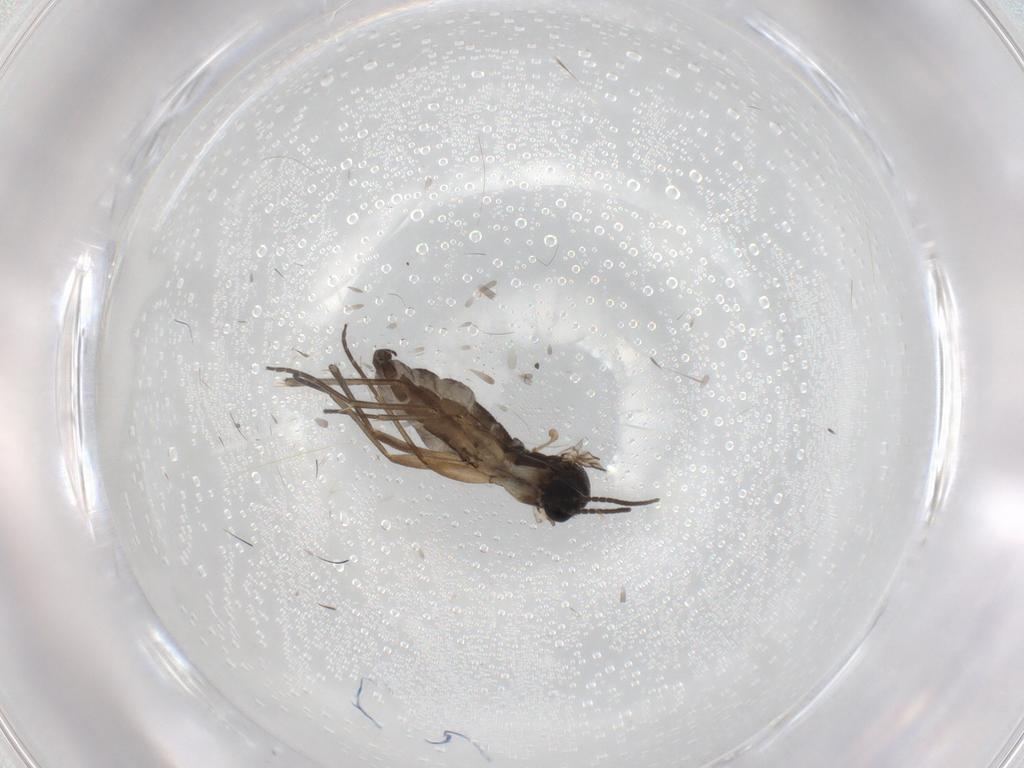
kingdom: Animalia
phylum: Arthropoda
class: Insecta
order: Diptera
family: Sciaridae
